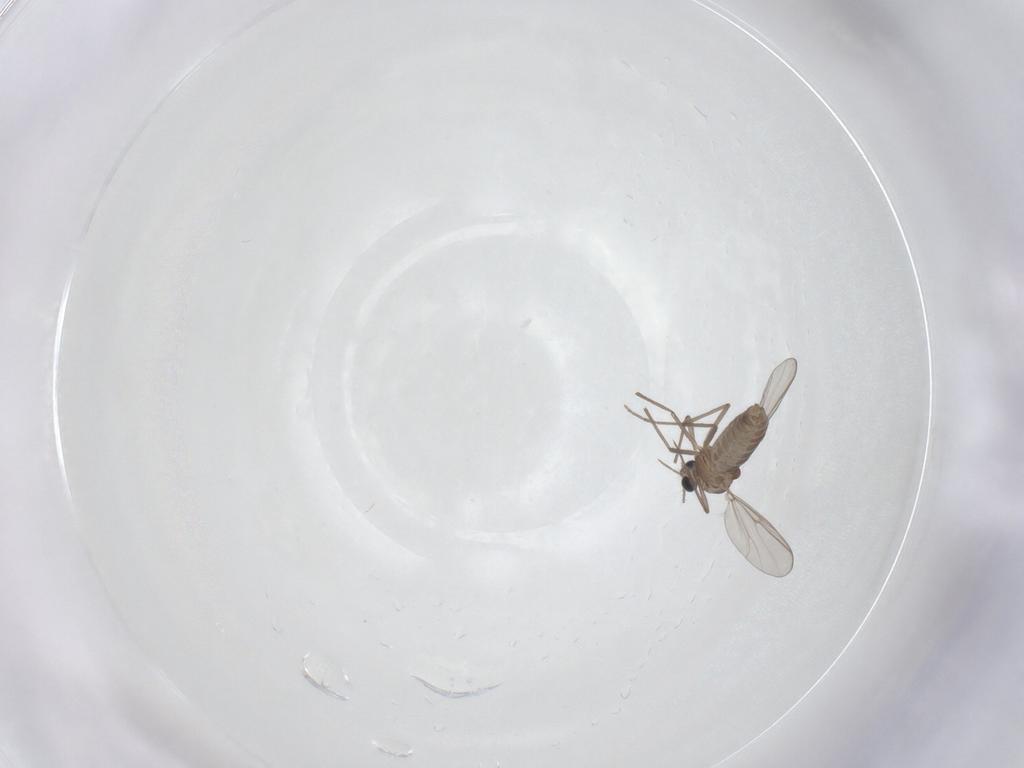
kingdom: Animalia
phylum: Arthropoda
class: Insecta
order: Diptera
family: Chironomidae
